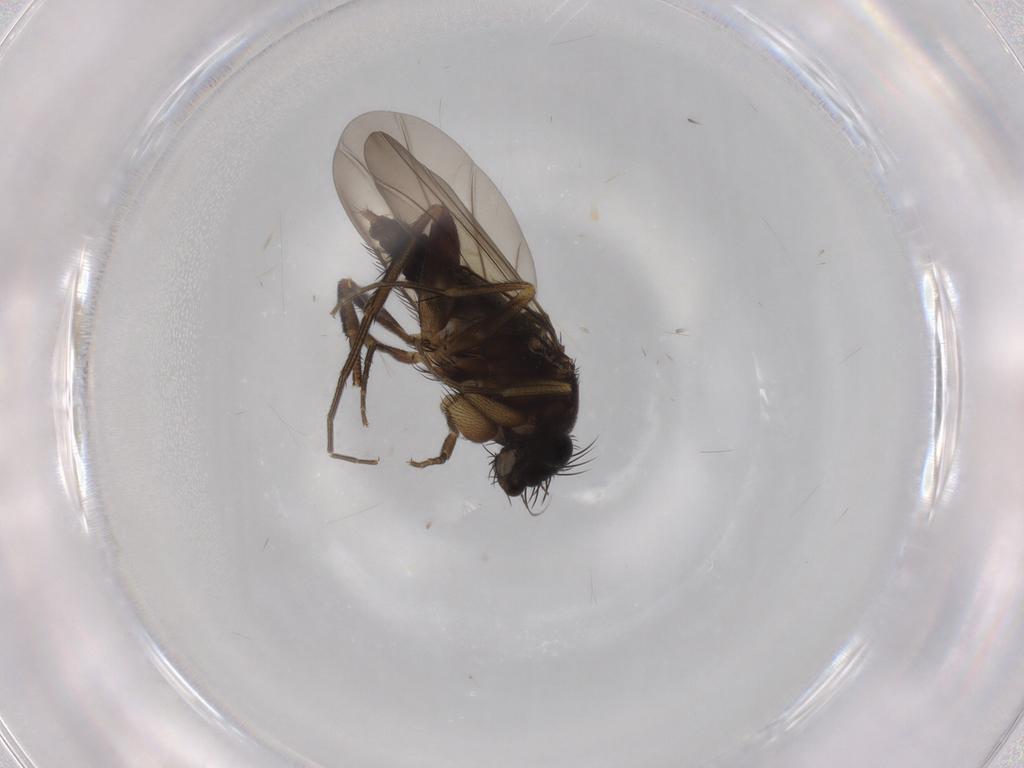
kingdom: Animalia
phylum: Arthropoda
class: Insecta
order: Diptera
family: Phoridae
